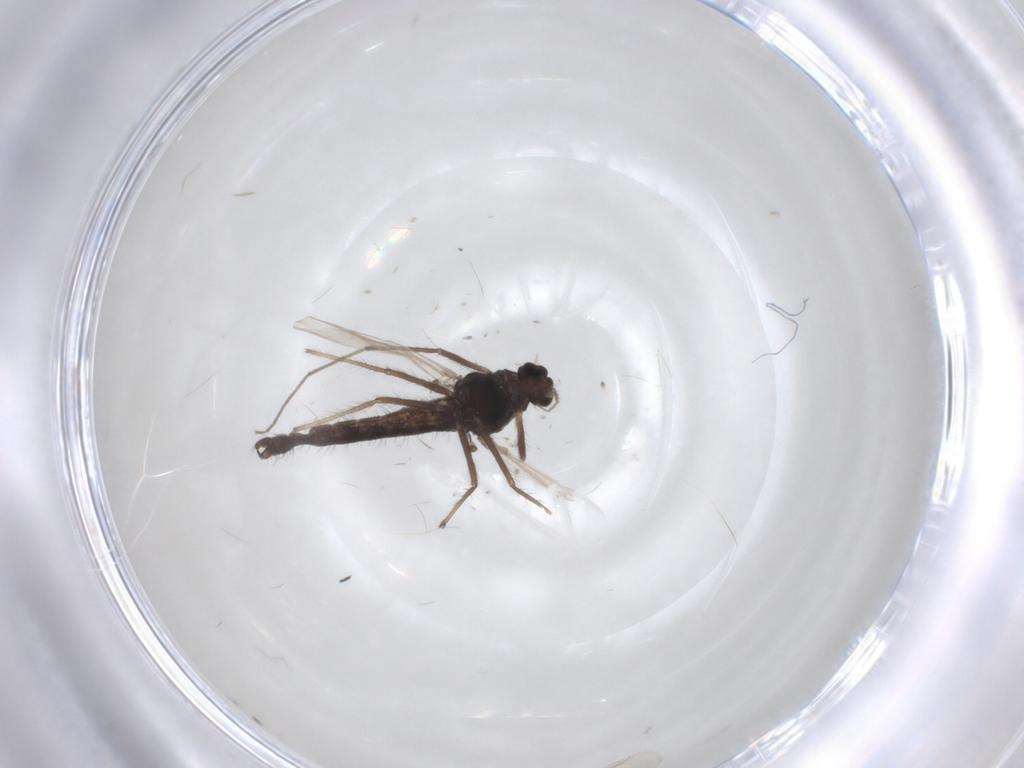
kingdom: Animalia
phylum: Arthropoda
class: Insecta
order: Diptera
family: Chironomidae
